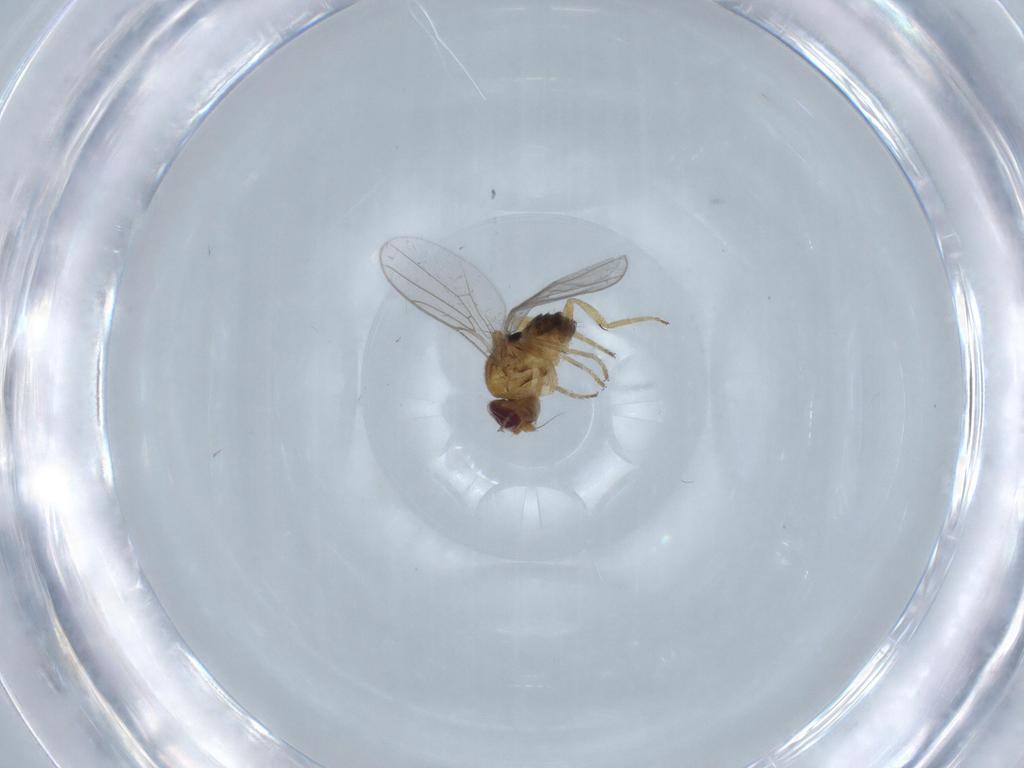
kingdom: Animalia
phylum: Arthropoda
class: Insecta
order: Diptera
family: Chloropidae
